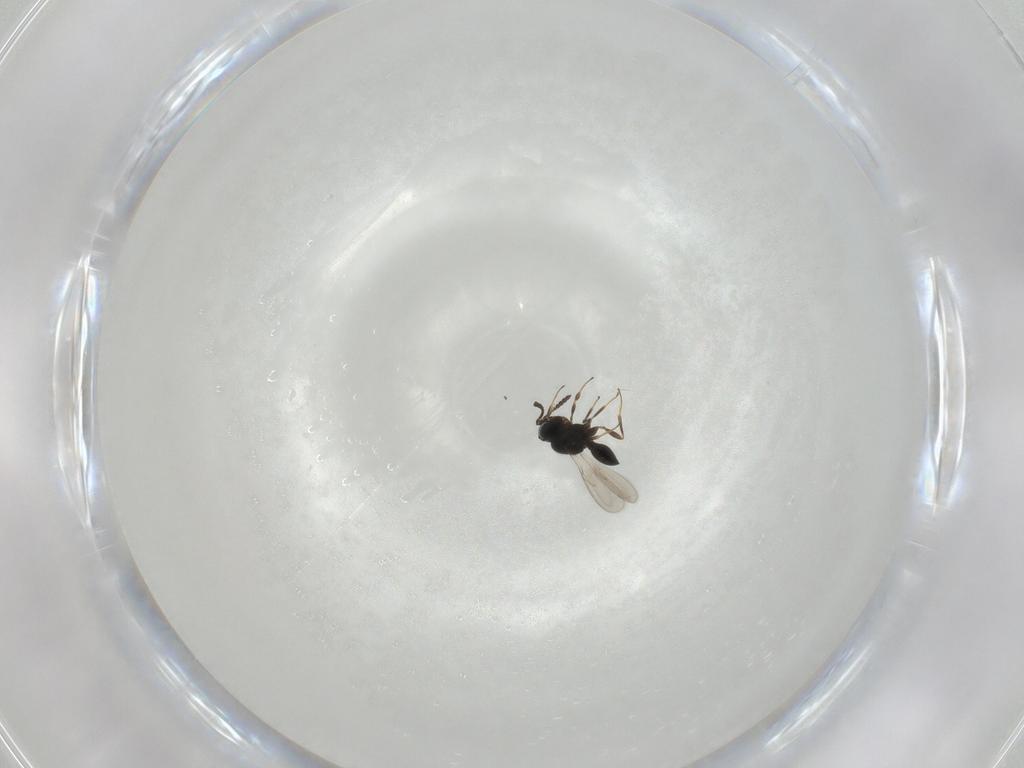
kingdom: Animalia
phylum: Arthropoda
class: Insecta
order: Hymenoptera
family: Scelionidae
